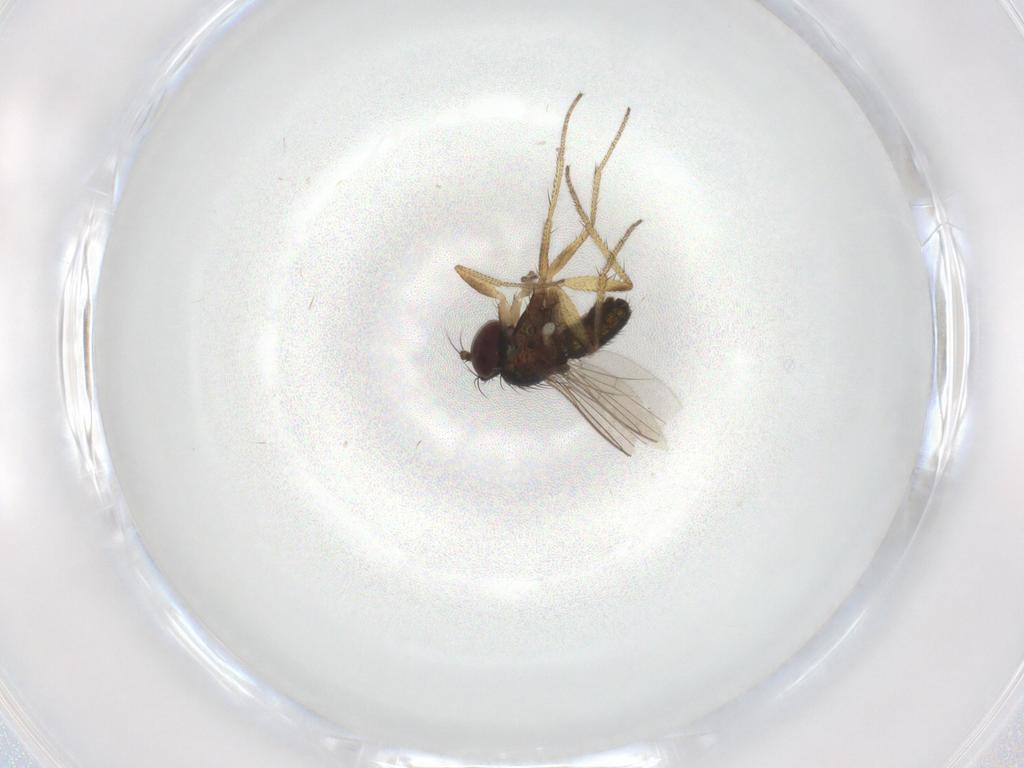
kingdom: Animalia
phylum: Arthropoda
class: Insecta
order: Diptera
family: Dolichopodidae
